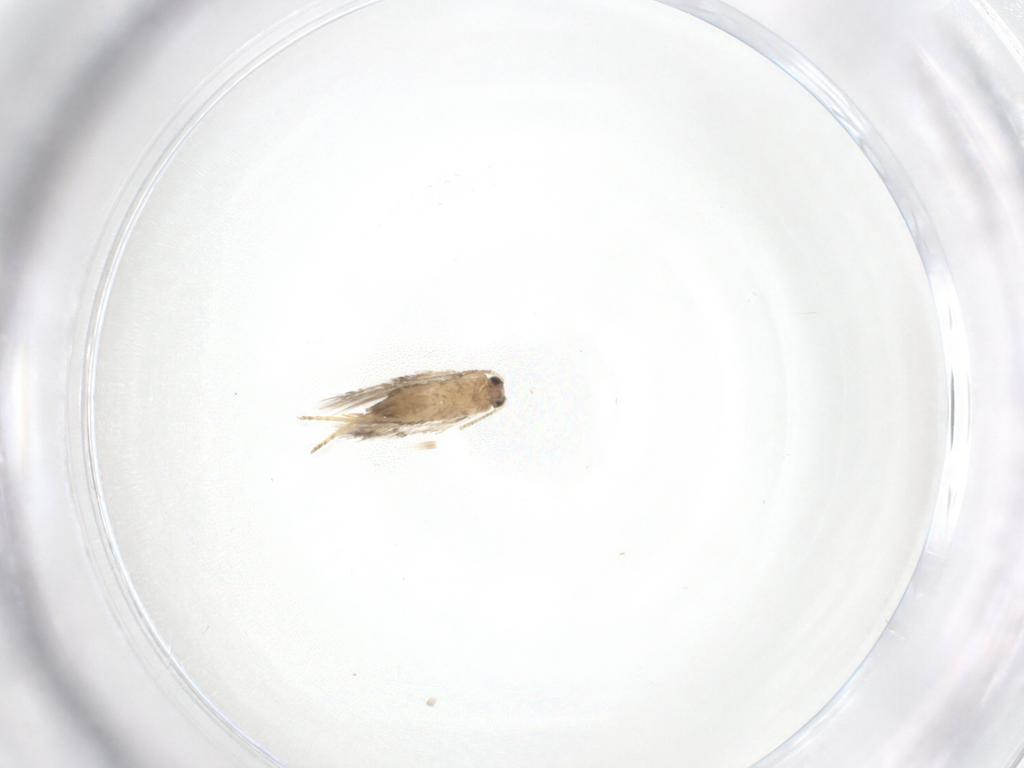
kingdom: Animalia
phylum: Arthropoda
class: Insecta
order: Lepidoptera
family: Nepticulidae
